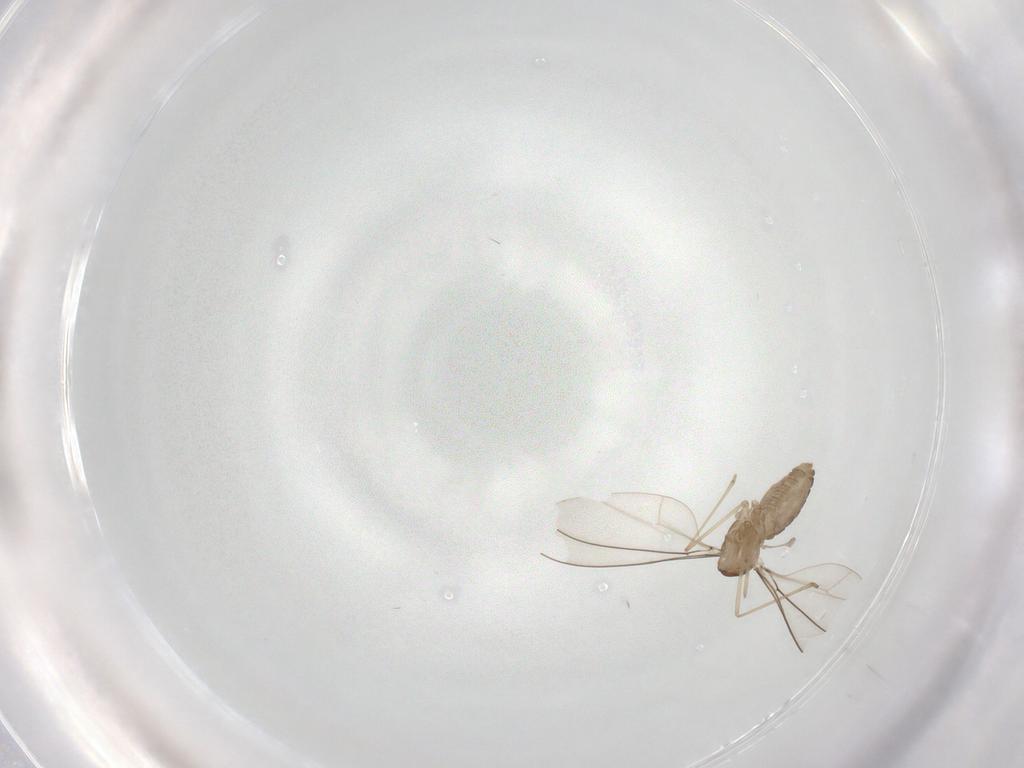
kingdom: Animalia
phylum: Arthropoda
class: Insecta
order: Diptera
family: Cecidomyiidae
